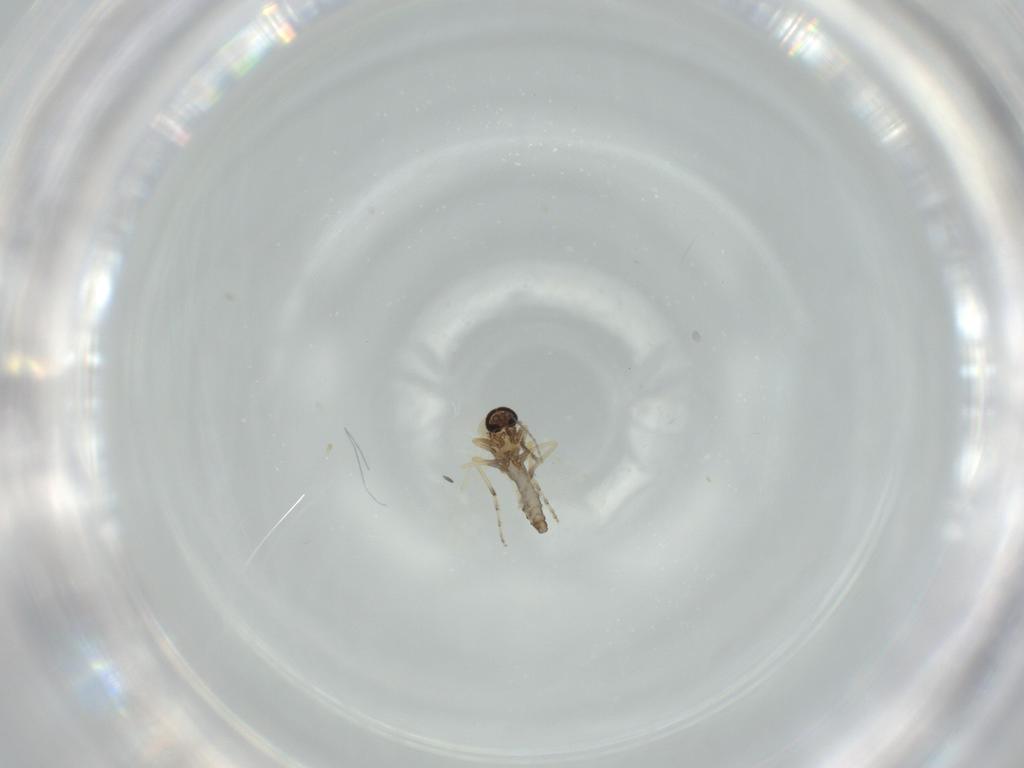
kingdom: Animalia
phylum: Arthropoda
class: Insecta
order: Diptera
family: Ceratopogonidae
